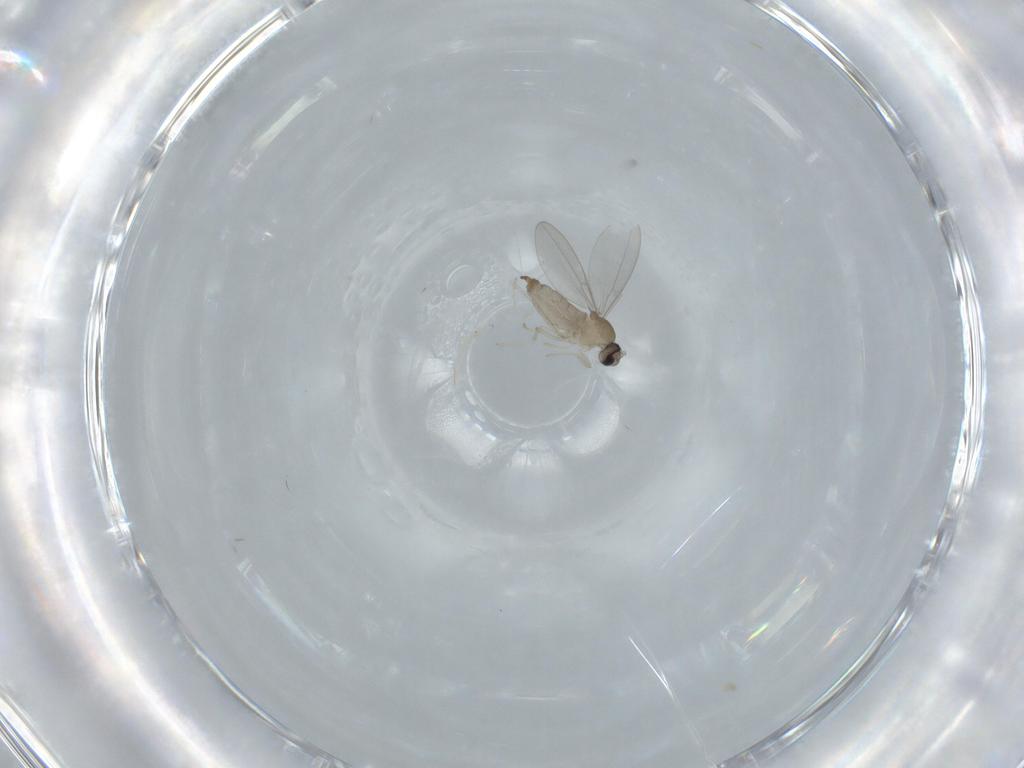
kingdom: Animalia
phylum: Arthropoda
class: Insecta
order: Diptera
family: Cecidomyiidae
